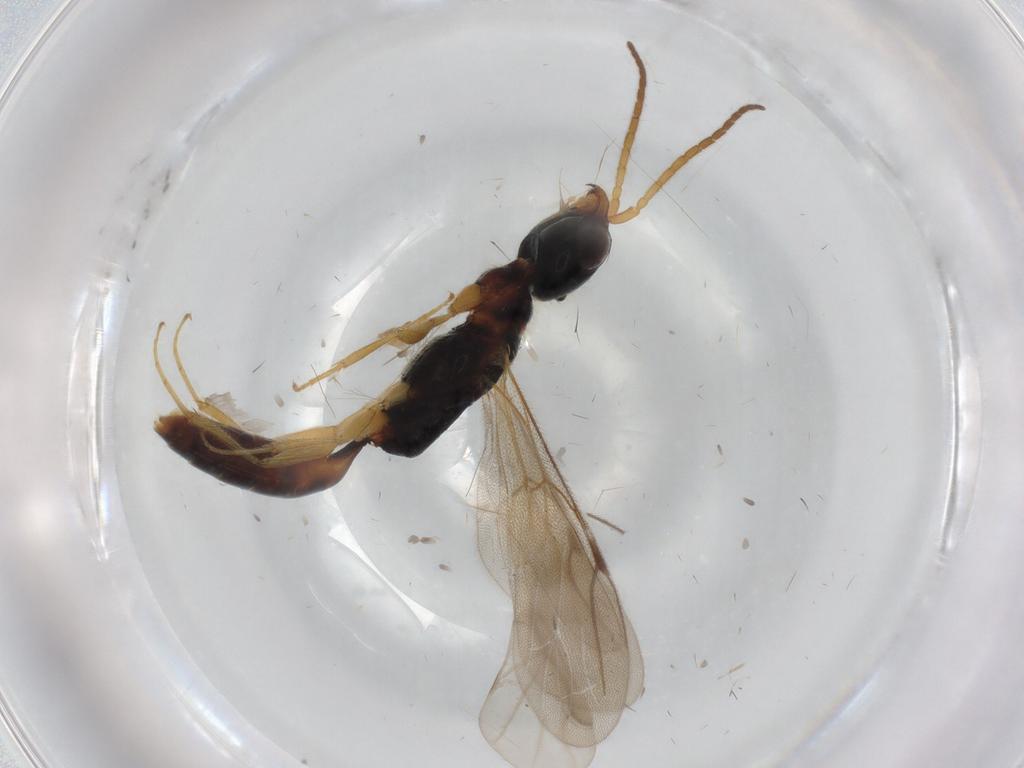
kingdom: Animalia
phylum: Arthropoda
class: Insecta
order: Hymenoptera
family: Bethylidae
